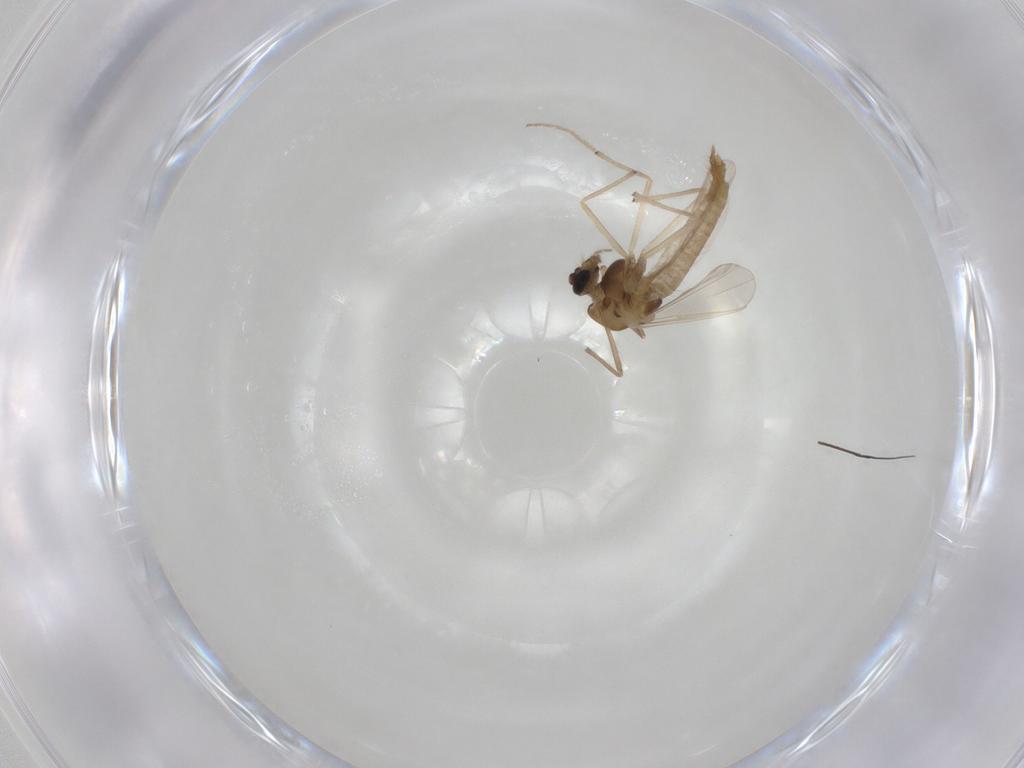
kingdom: Animalia
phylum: Arthropoda
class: Insecta
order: Diptera
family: Chironomidae
